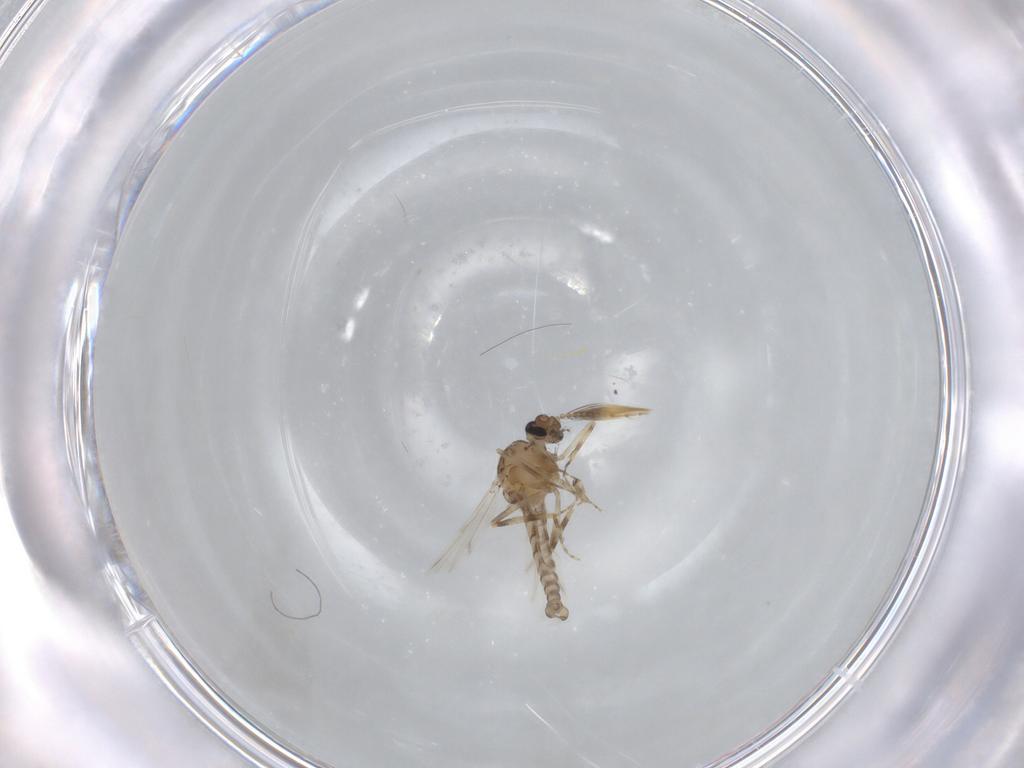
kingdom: Animalia
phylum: Arthropoda
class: Insecta
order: Diptera
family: Ceratopogonidae
